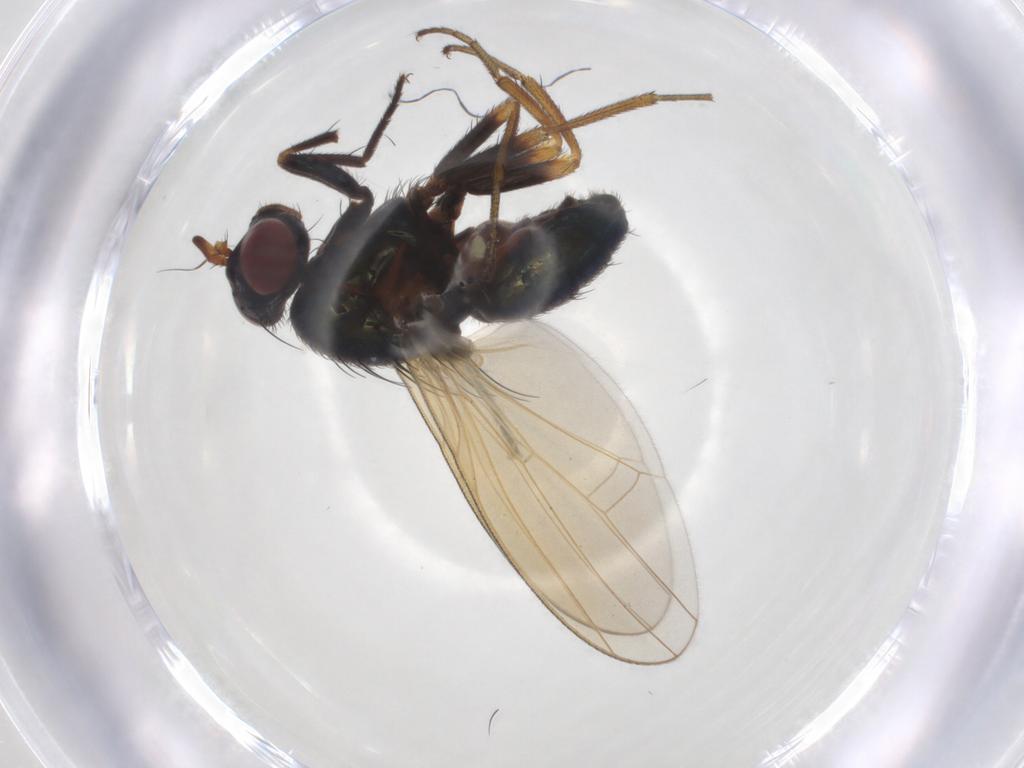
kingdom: Animalia
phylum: Arthropoda
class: Insecta
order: Diptera
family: Lauxaniidae
